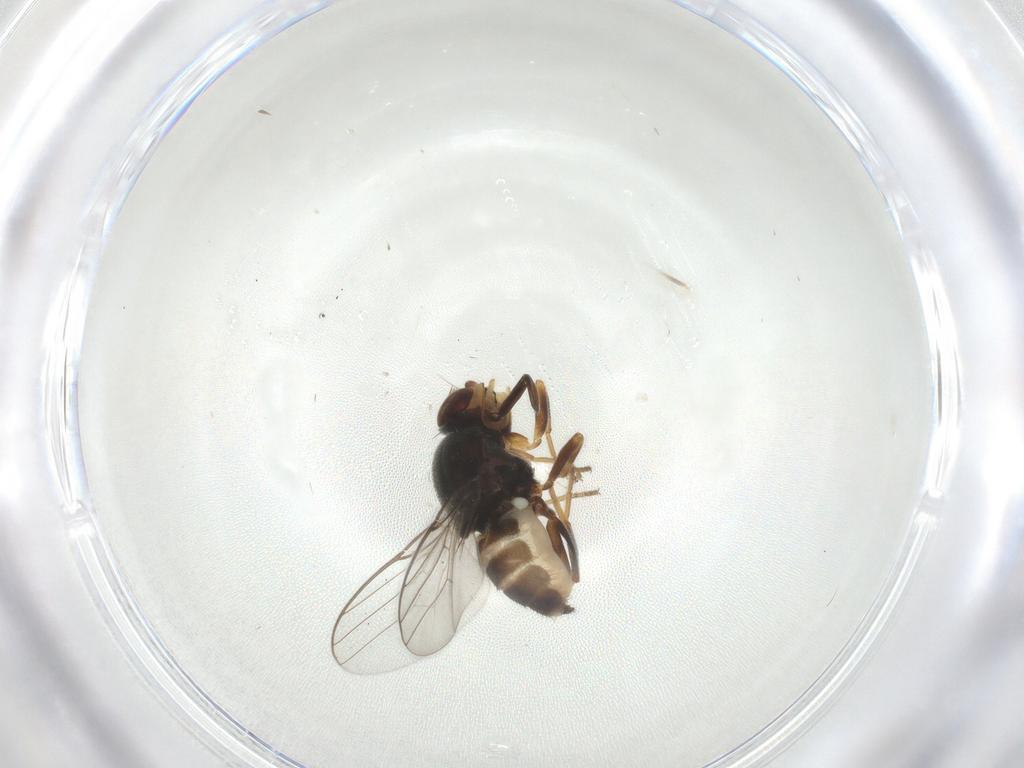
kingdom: Animalia
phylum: Arthropoda
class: Insecta
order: Diptera
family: Chloropidae
